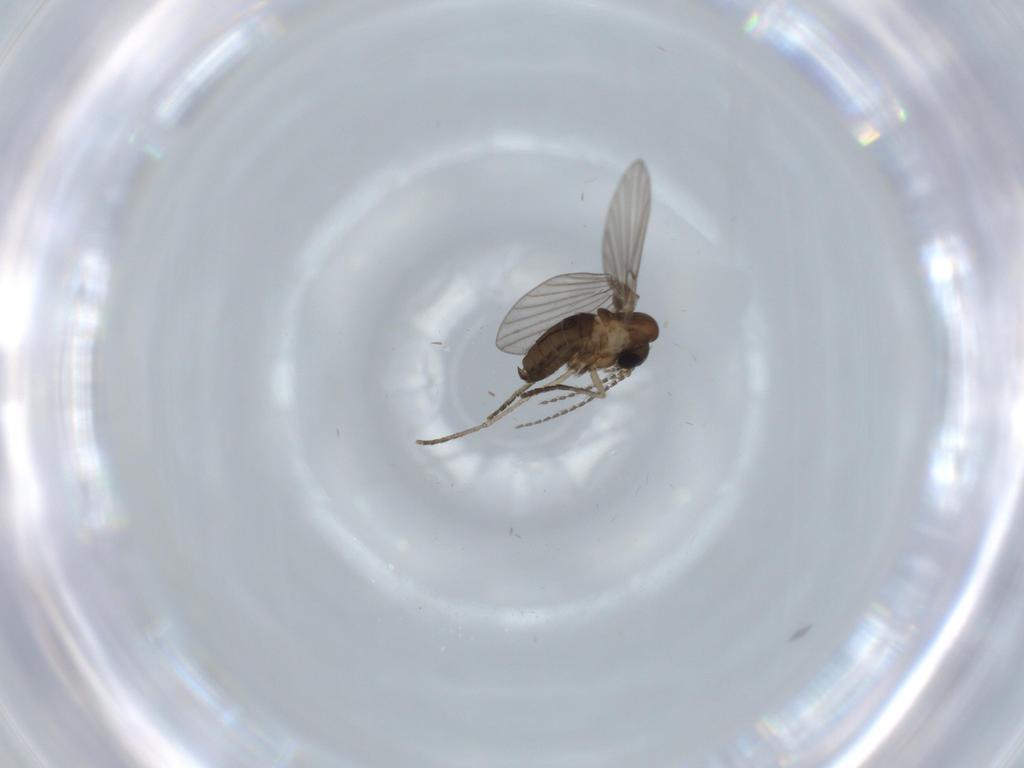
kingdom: Animalia
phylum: Arthropoda
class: Insecta
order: Diptera
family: Psychodidae
